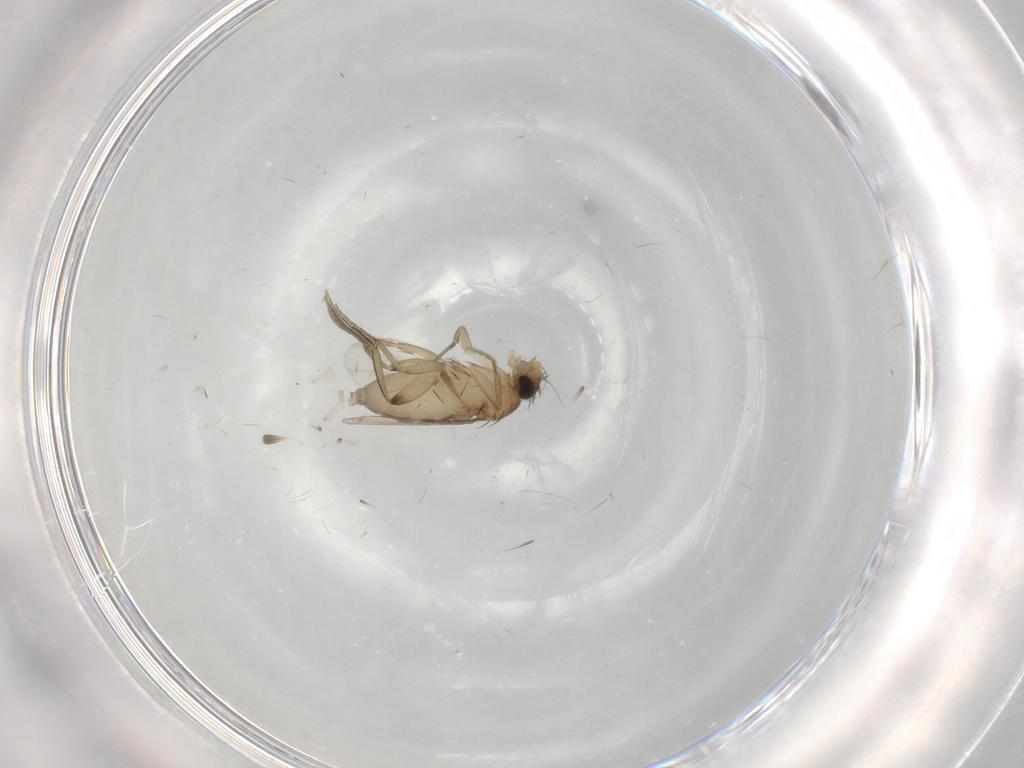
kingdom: Animalia
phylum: Arthropoda
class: Insecta
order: Diptera
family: Phoridae
